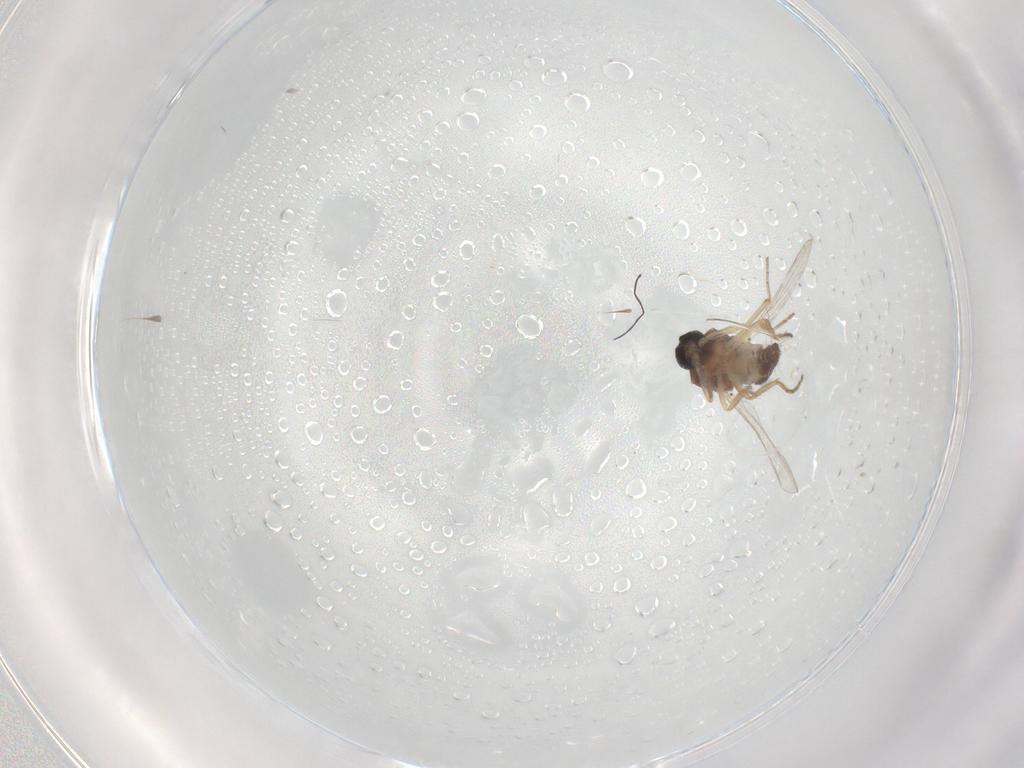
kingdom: Animalia
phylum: Arthropoda
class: Insecta
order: Diptera
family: Ceratopogonidae
